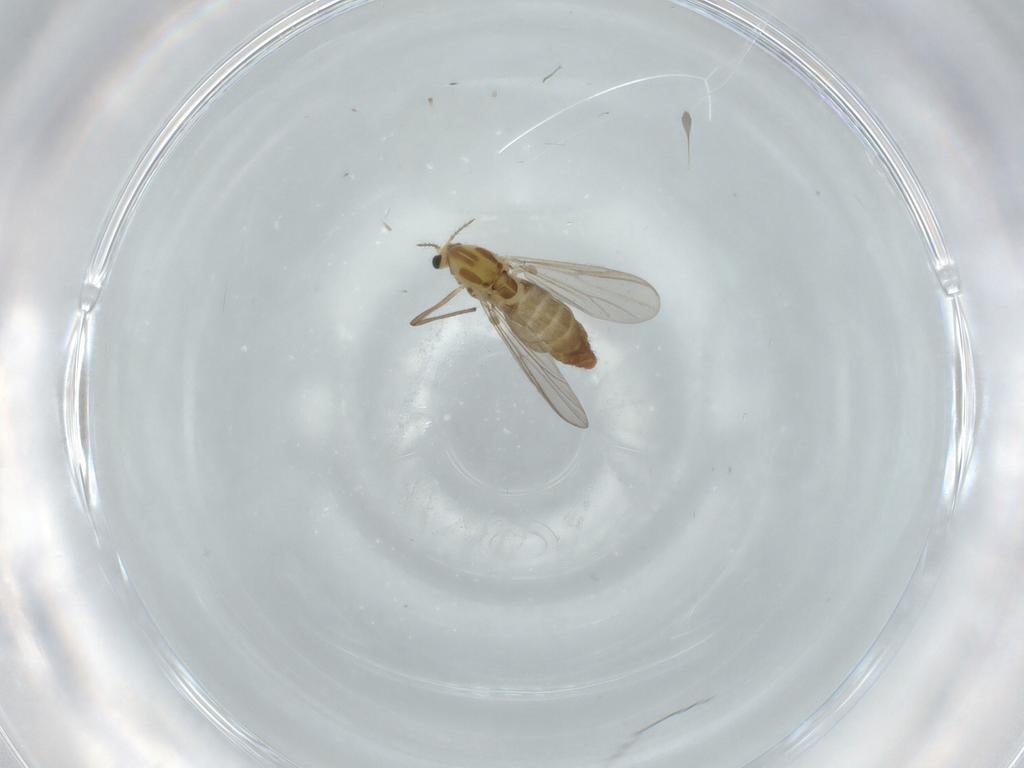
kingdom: Animalia
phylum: Arthropoda
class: Insecta
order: Diptera
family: Chironomidae
